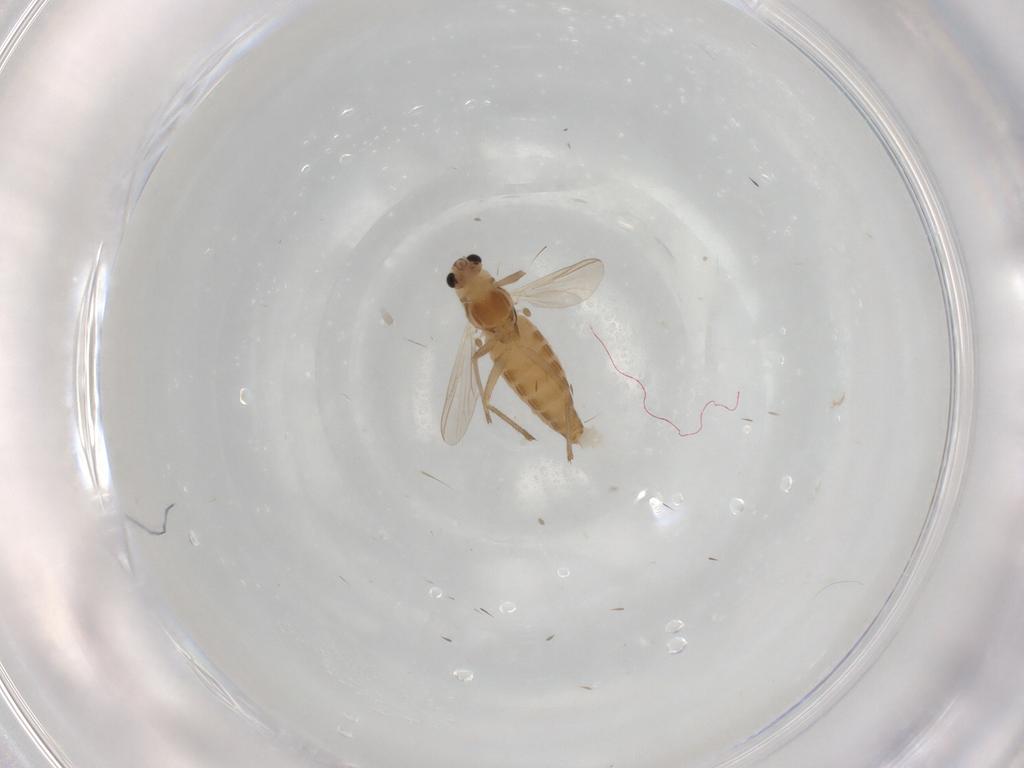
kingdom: Animalia
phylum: Arthropoda
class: Insecta
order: Diptera
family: Chironomidae
